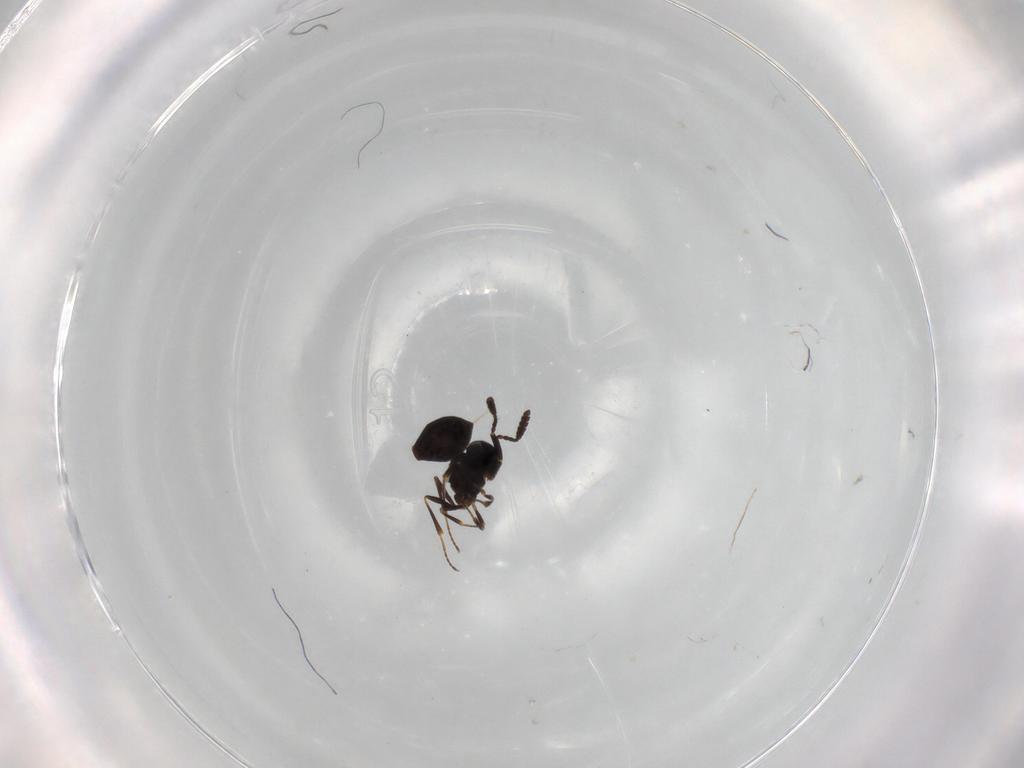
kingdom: Animalia
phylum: Arthropoda
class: Insecta
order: Hymenoptera
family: Scelionidae
